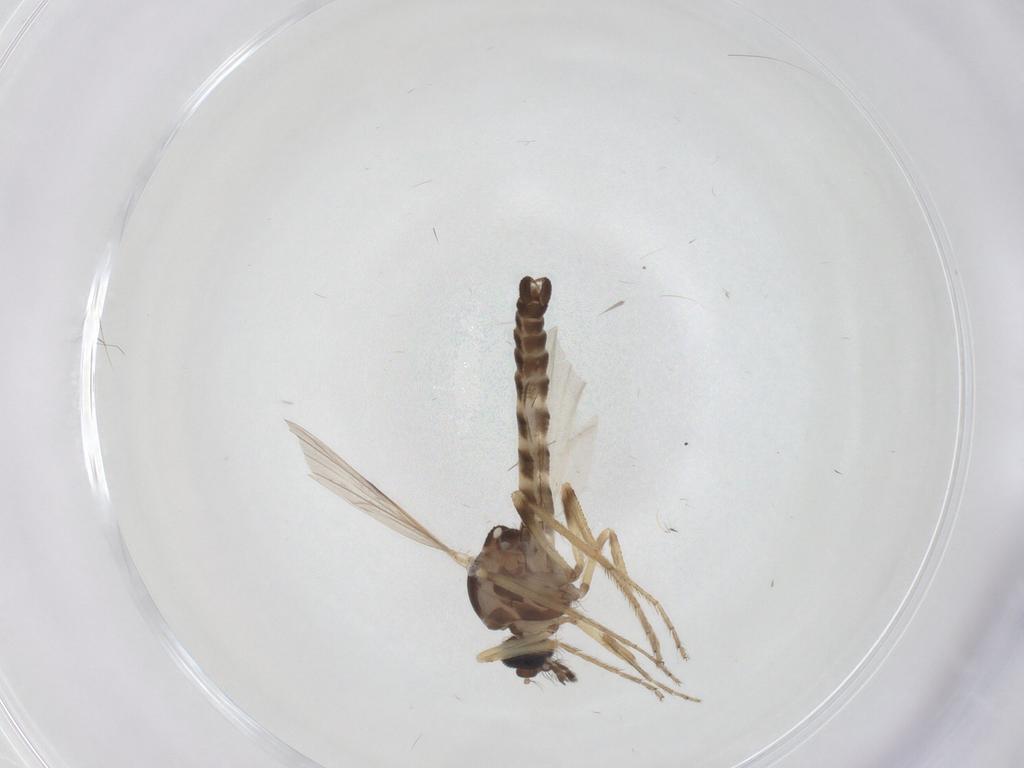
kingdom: Animalia
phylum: Arthropoda
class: Insecta
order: Diptera
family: Ceratopogonidae
